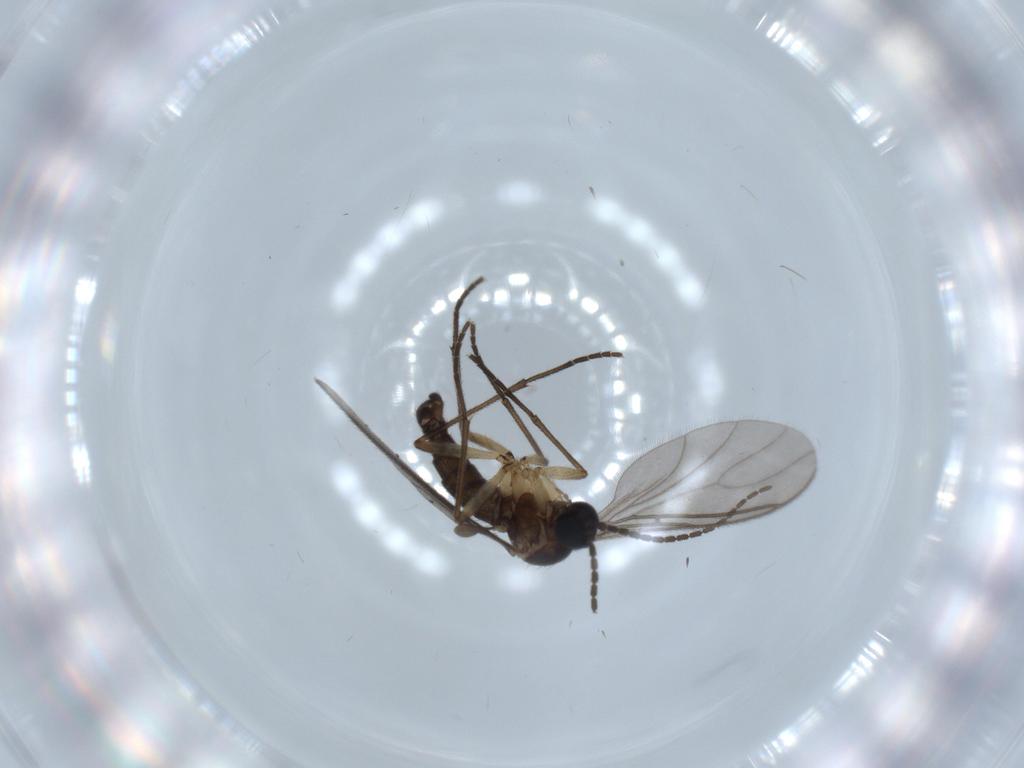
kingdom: Animalia
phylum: Arthropoda
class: Insecta
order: Diptera
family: Sciaridae
